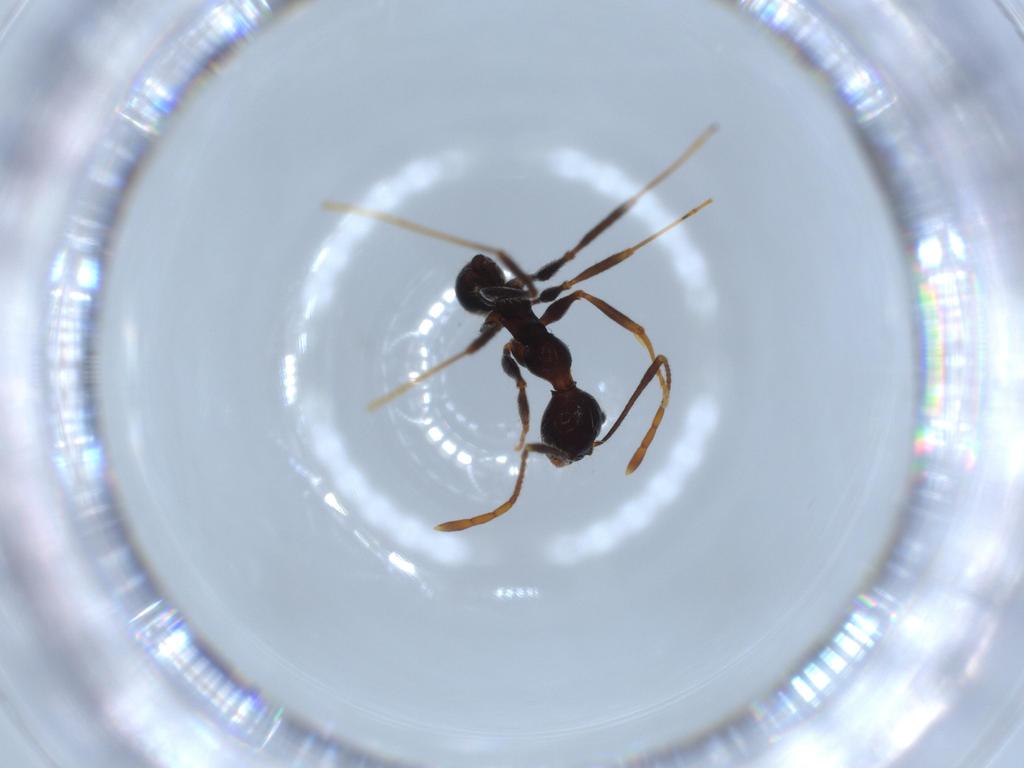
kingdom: Animalia
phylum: Arthropoda
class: Insecta
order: Hymenoptera
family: Formicidae
